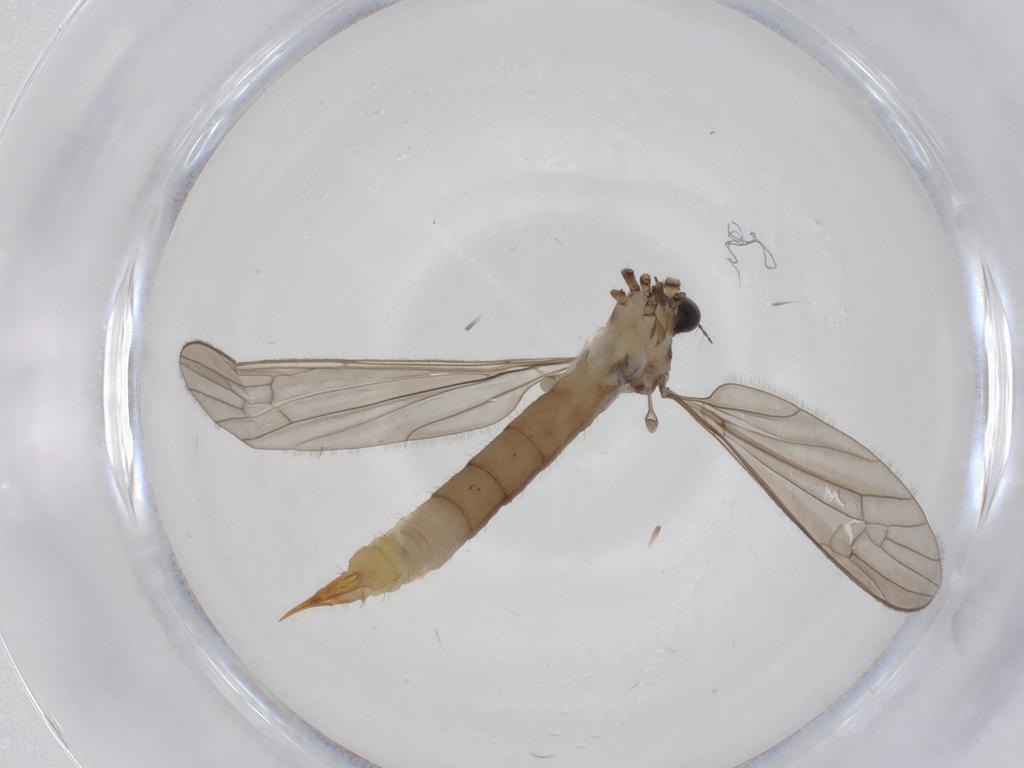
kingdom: Animalia
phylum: Arthropoda
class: Insecta
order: Diptera
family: Limoniidae
